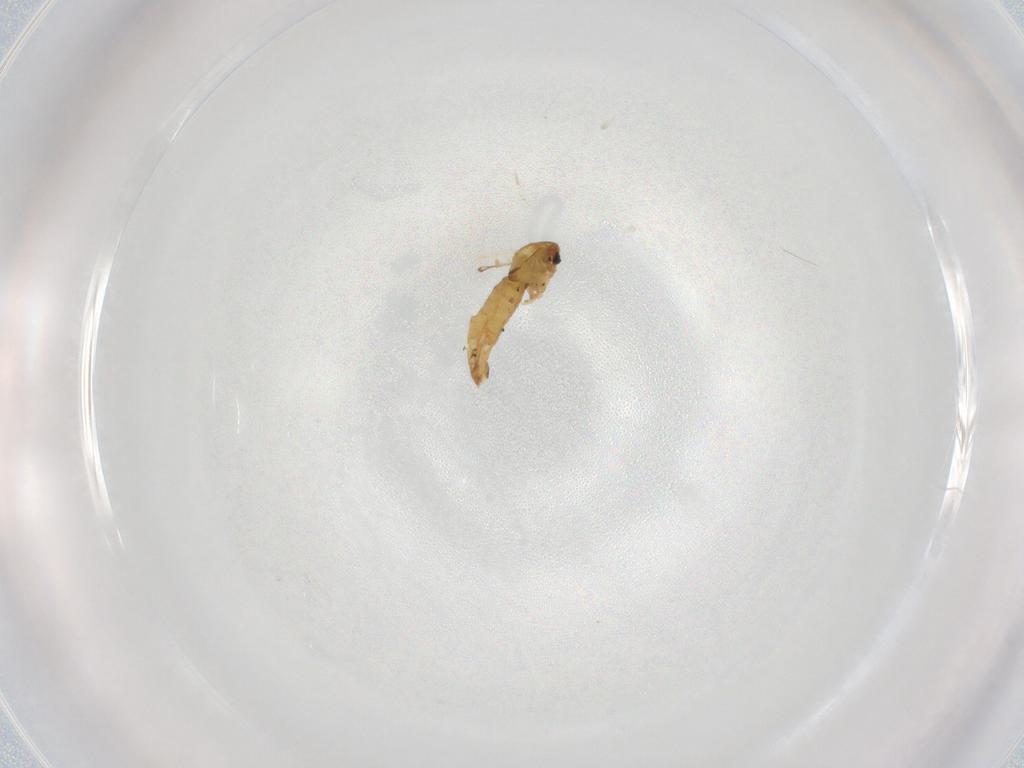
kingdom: Animalia
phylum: Arthropoda
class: Insecta
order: Diptera
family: Chironomidae
